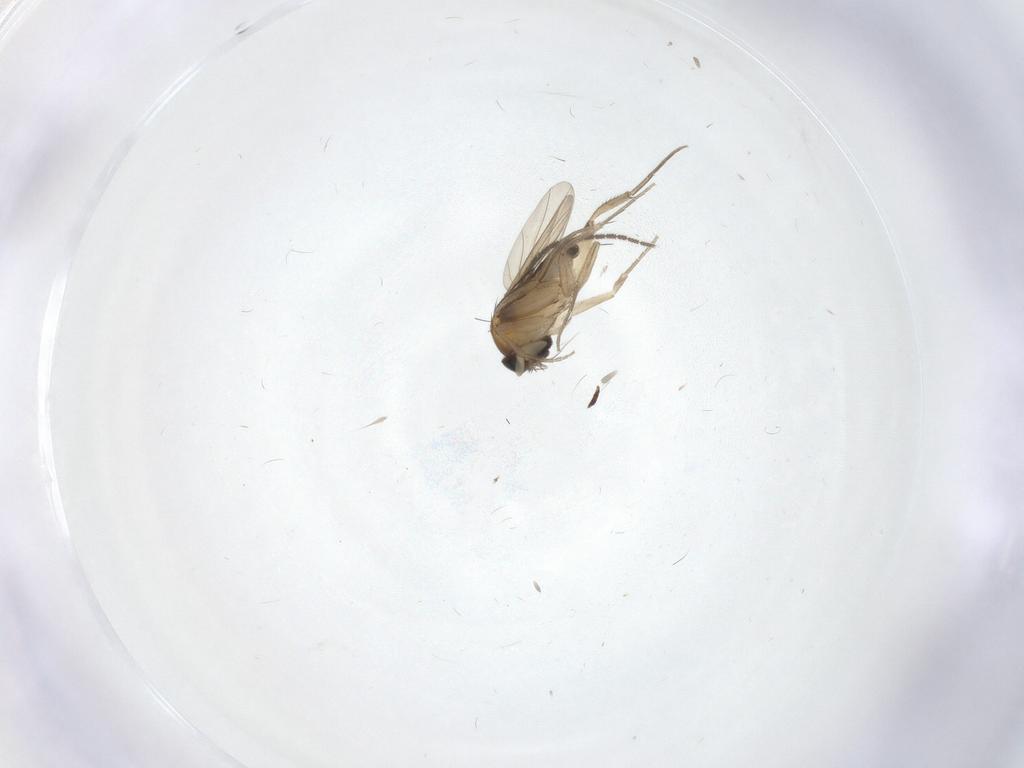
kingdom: Animalia
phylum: Arthropoda
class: Insecta
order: Diptera
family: Phoridae
